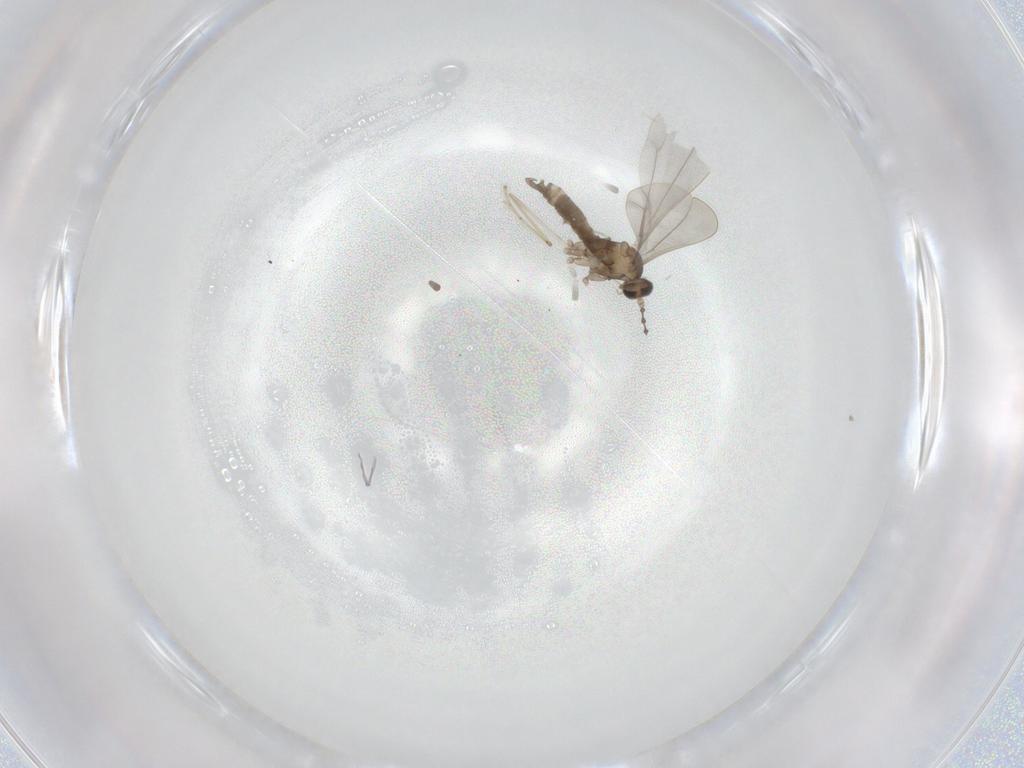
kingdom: Animalia
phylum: Arthropoda
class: Insecta
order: Diptera
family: Cecidomyiidae
